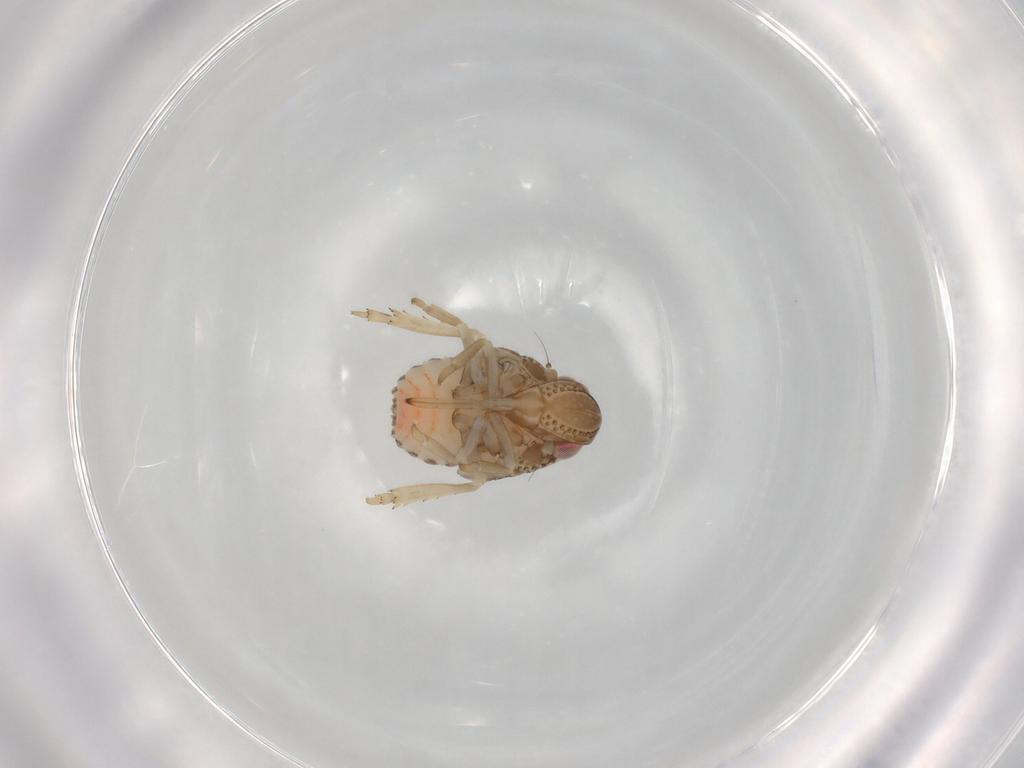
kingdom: Animalia
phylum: Arthropoda
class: Insecta
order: Hemiptera
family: Nogodinidae
